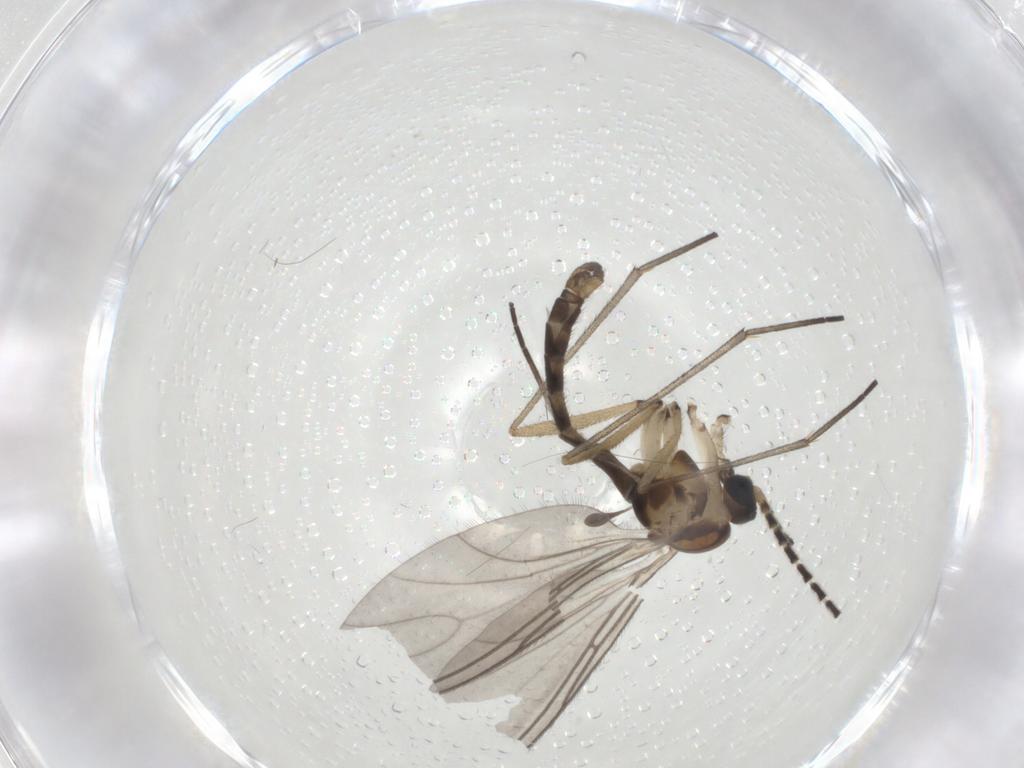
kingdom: Animalia
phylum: Arthropoda
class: Insecta
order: Diptera
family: Sciaridae
